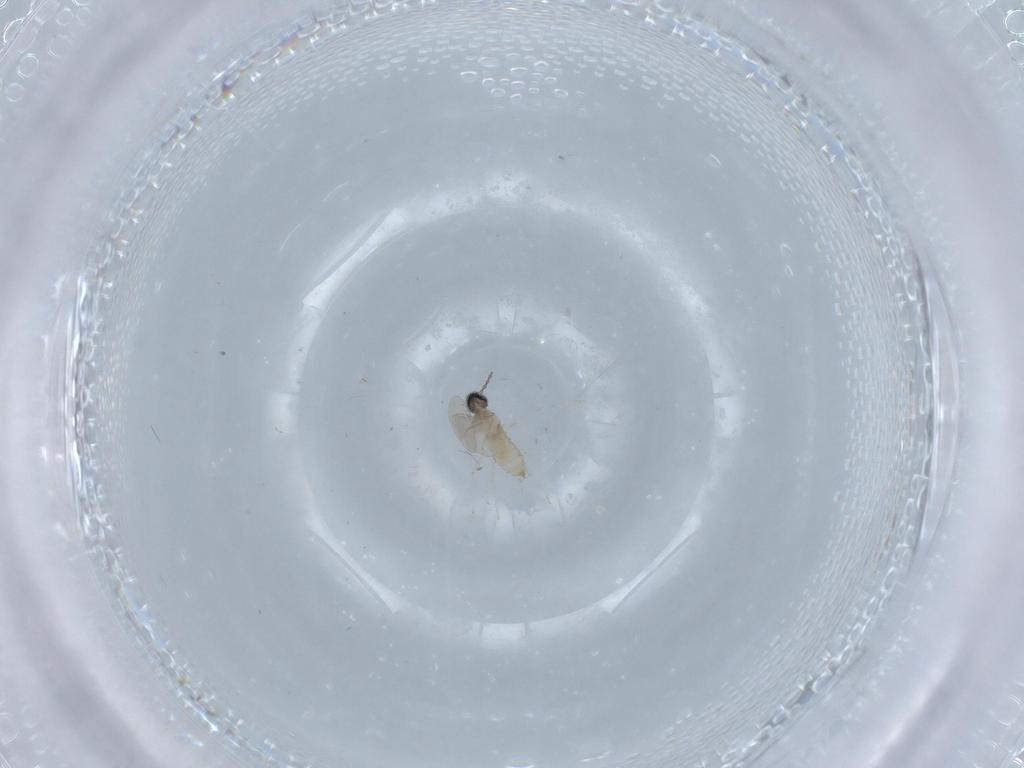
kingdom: Animalia
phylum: Arthropoda
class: Insecta
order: Diptera
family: Cecidomyiidae
